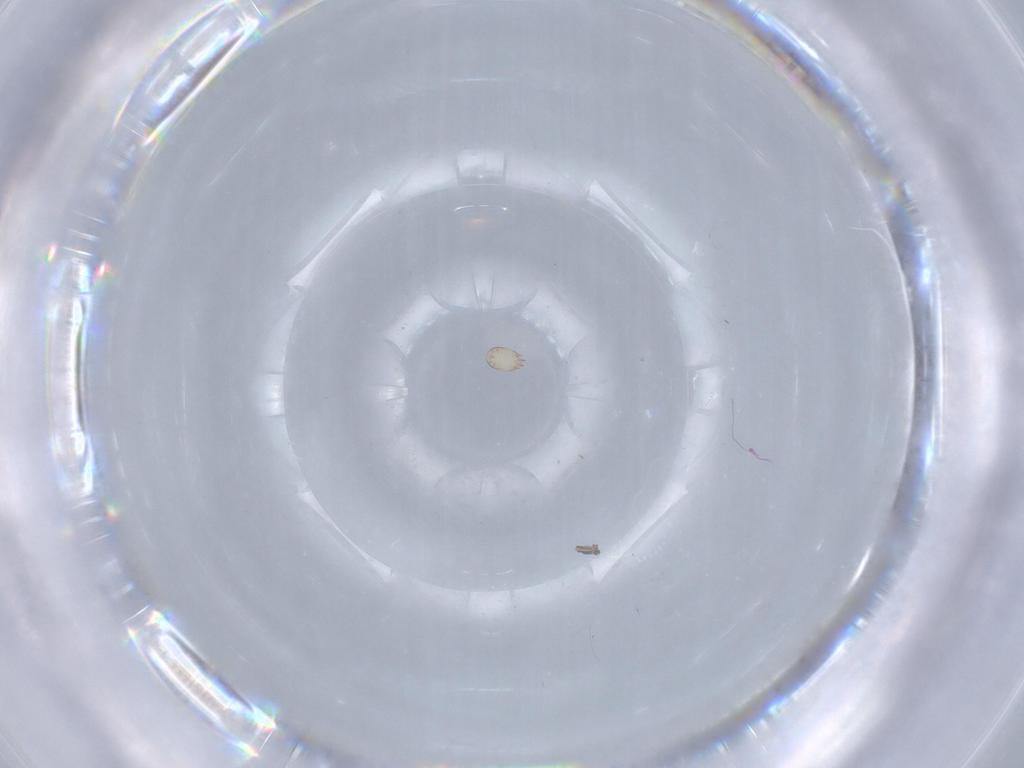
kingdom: Animalia
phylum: Arthropoda
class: Arachnida
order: Sarcoptiformes
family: Acaridae
